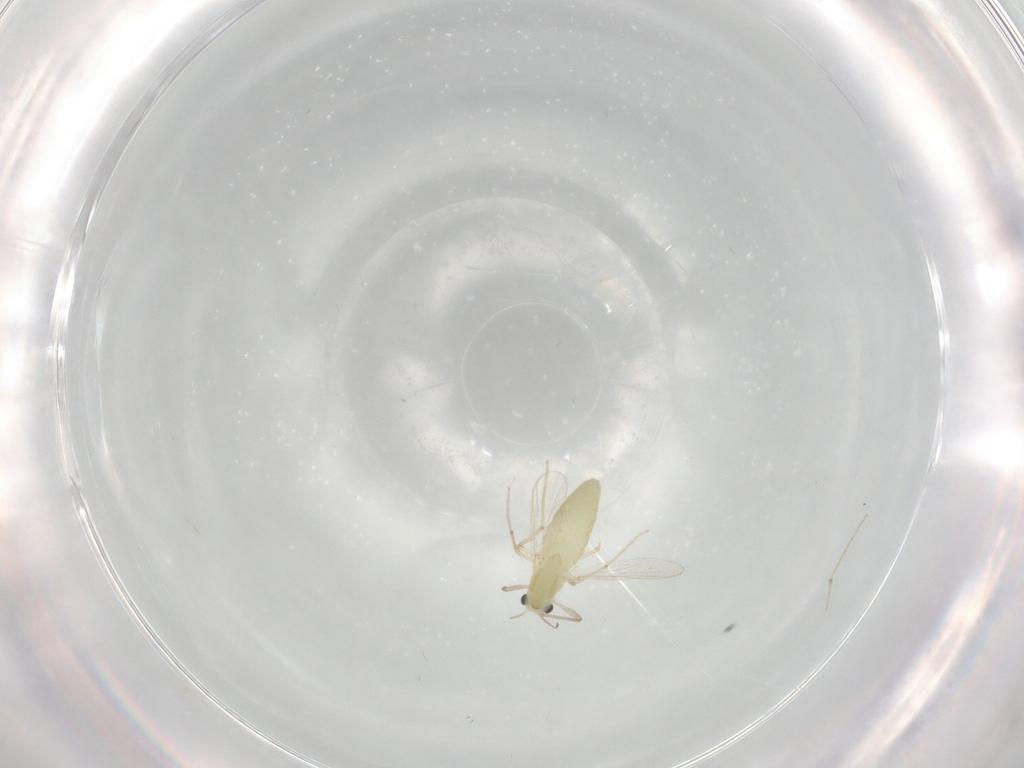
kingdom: Animalia
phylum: Arthropoda
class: Insecta
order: Diptera
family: Chironomidae
